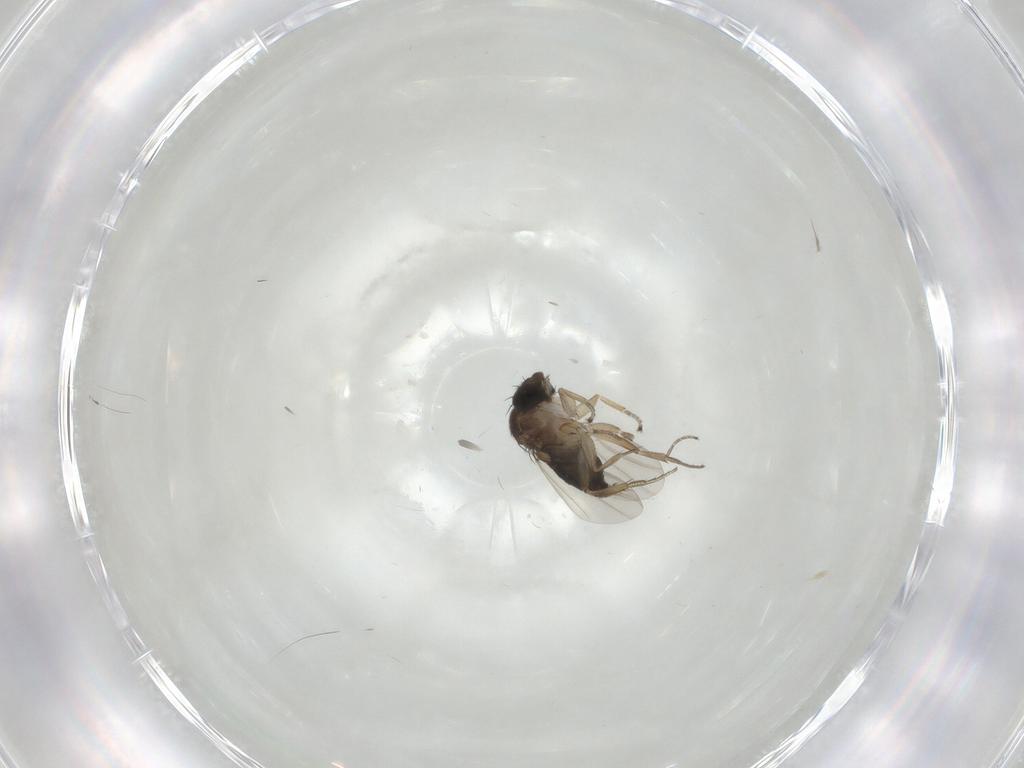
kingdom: Animalia
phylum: Arthropoda
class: Insecta
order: Diptera
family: Phoridae
